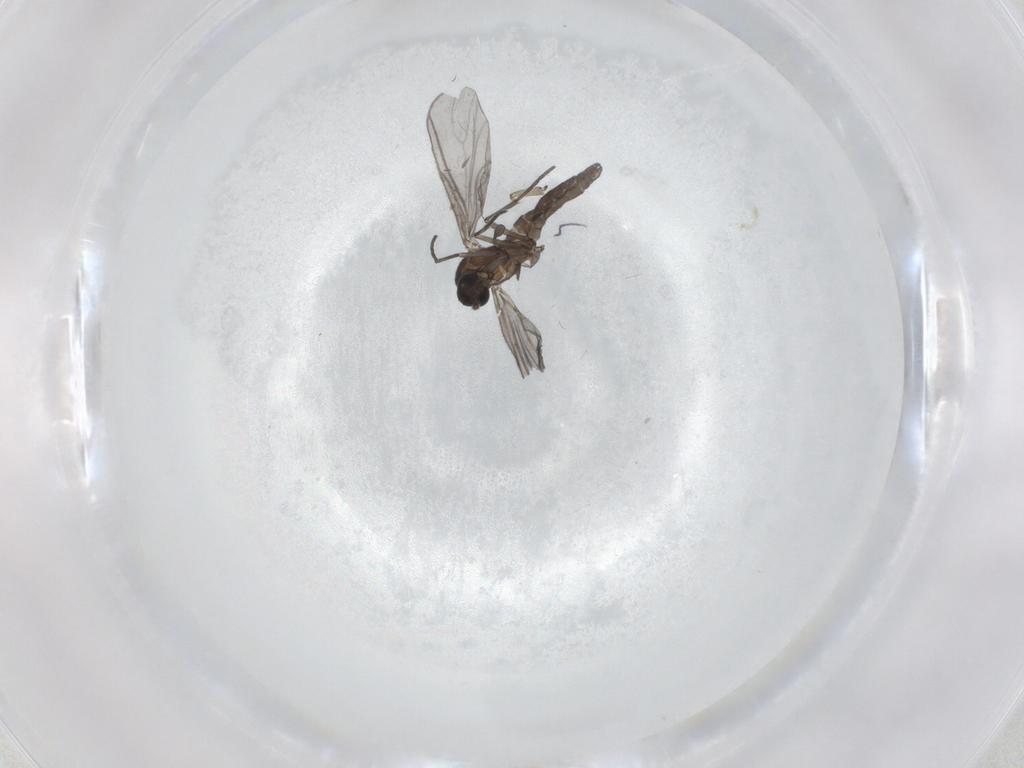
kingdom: Animalia
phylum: Arthropoda
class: Insecta
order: Diptera
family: Chironomidae
